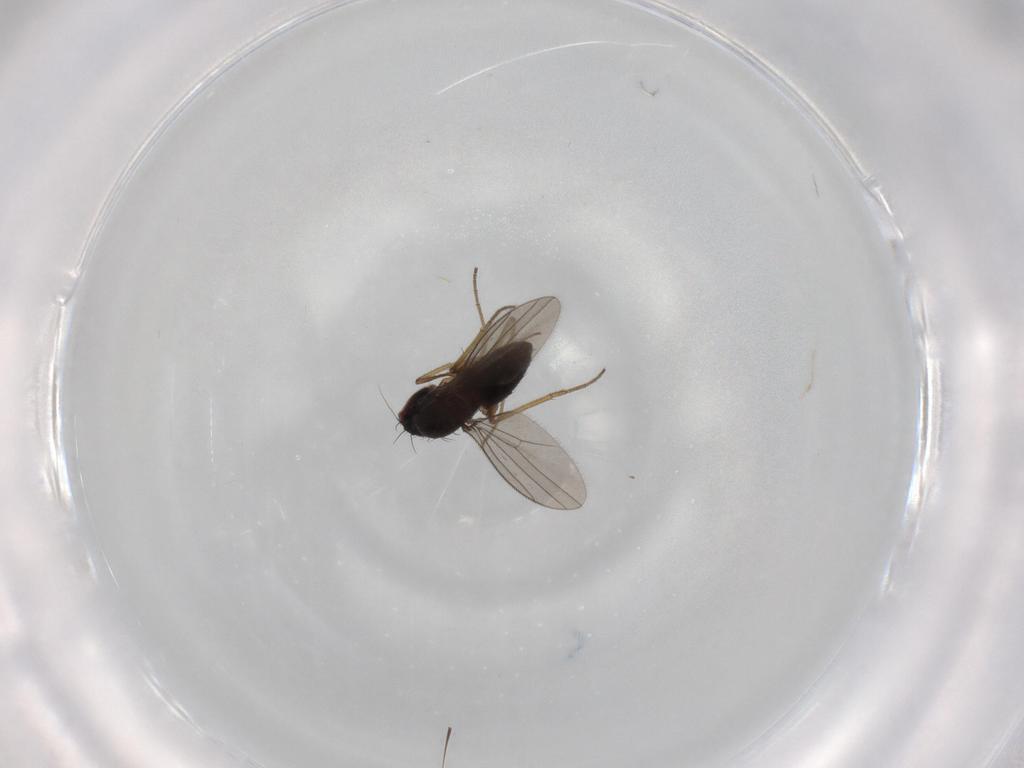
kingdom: Animalia
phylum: Arthropoda
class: Insecta
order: Diptera
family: Dolichopodidae
